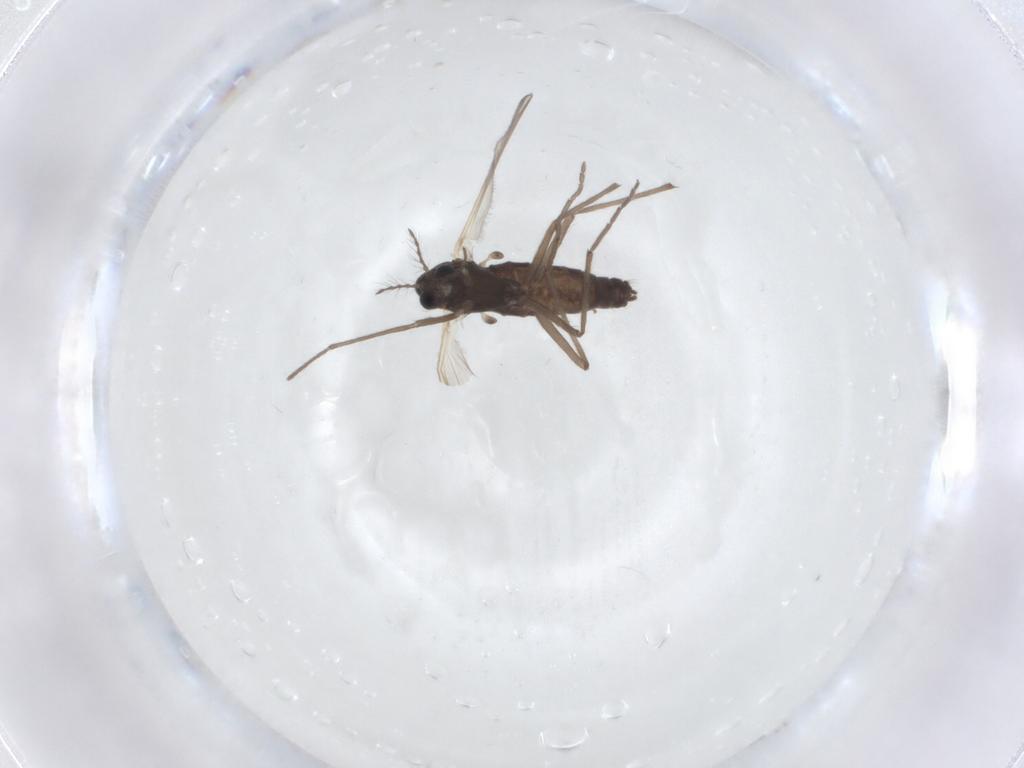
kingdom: Animalia
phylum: Arthropoda
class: Insecta
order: Diptera
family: Chironomidae
